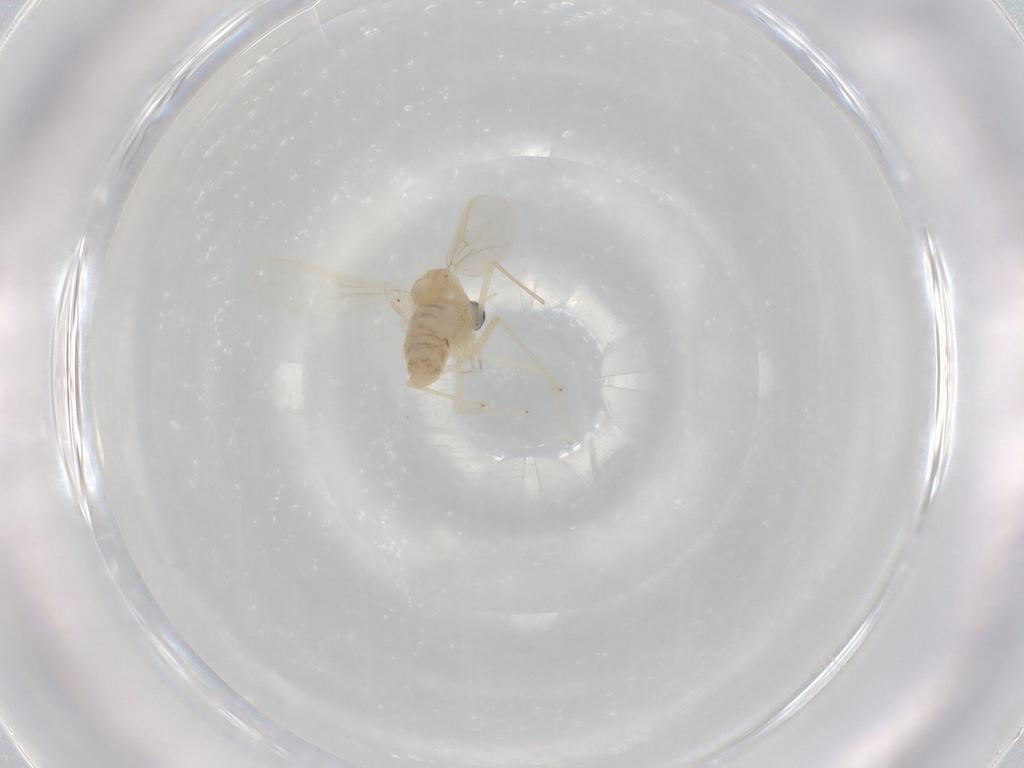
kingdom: Animalia
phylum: Arthropoda
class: Insecta
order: Diptera
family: Chironomidae
